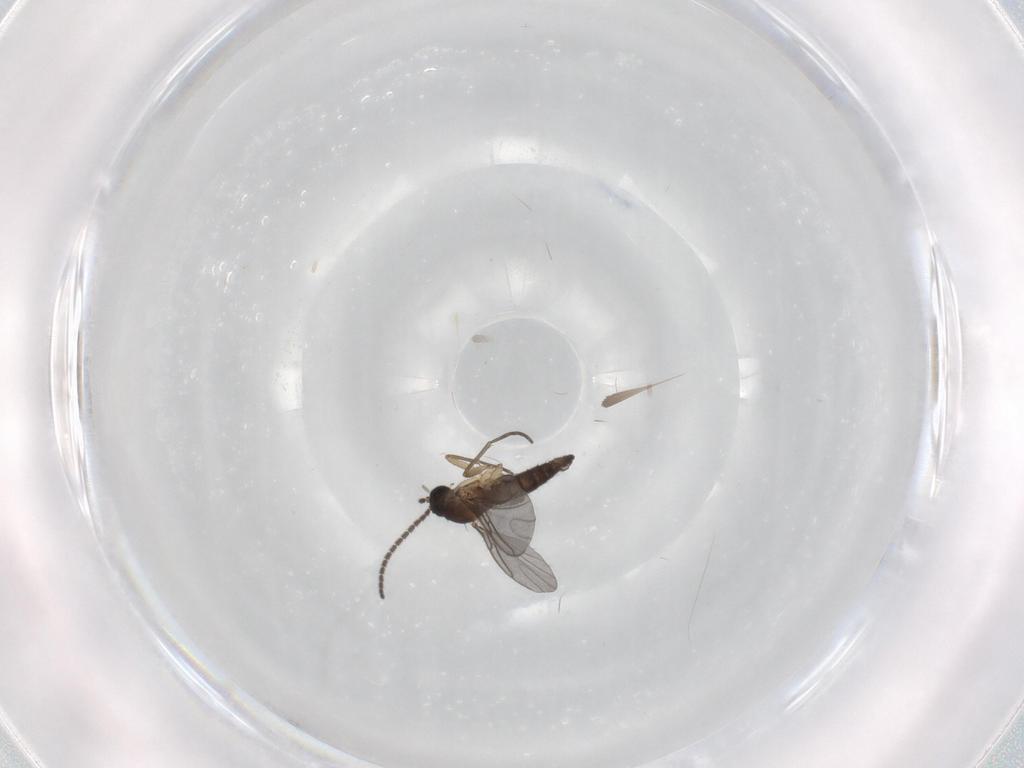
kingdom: Animalia
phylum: Arthropoda
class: Insecta
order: Diptera
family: Sciaridae
